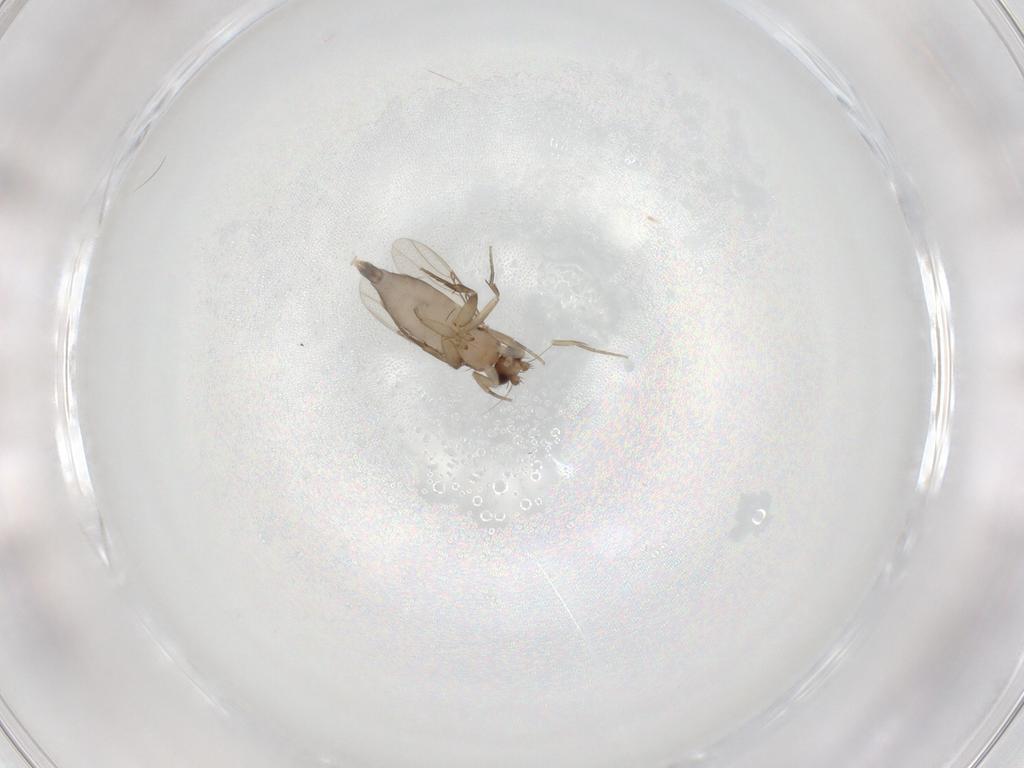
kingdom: Animalia
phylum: Arthropoda
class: Insecta
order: Diptera
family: Phoridae
